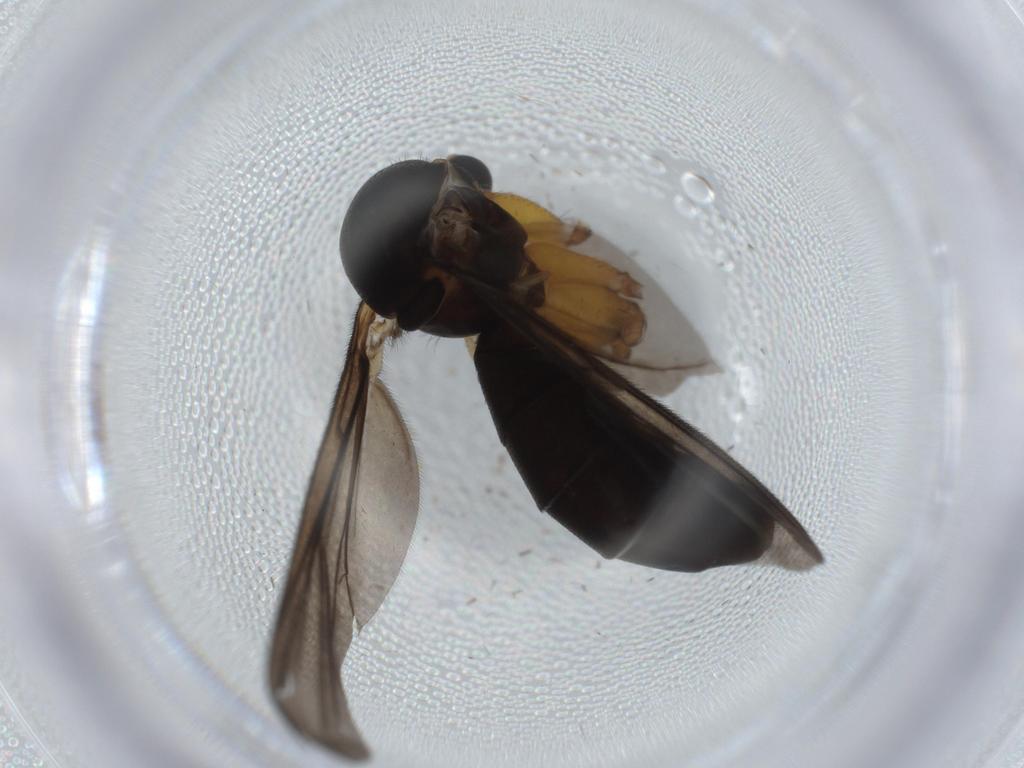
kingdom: Animalia
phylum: Arthropoda
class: Insecta
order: Diptera
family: Mycetophilidae
